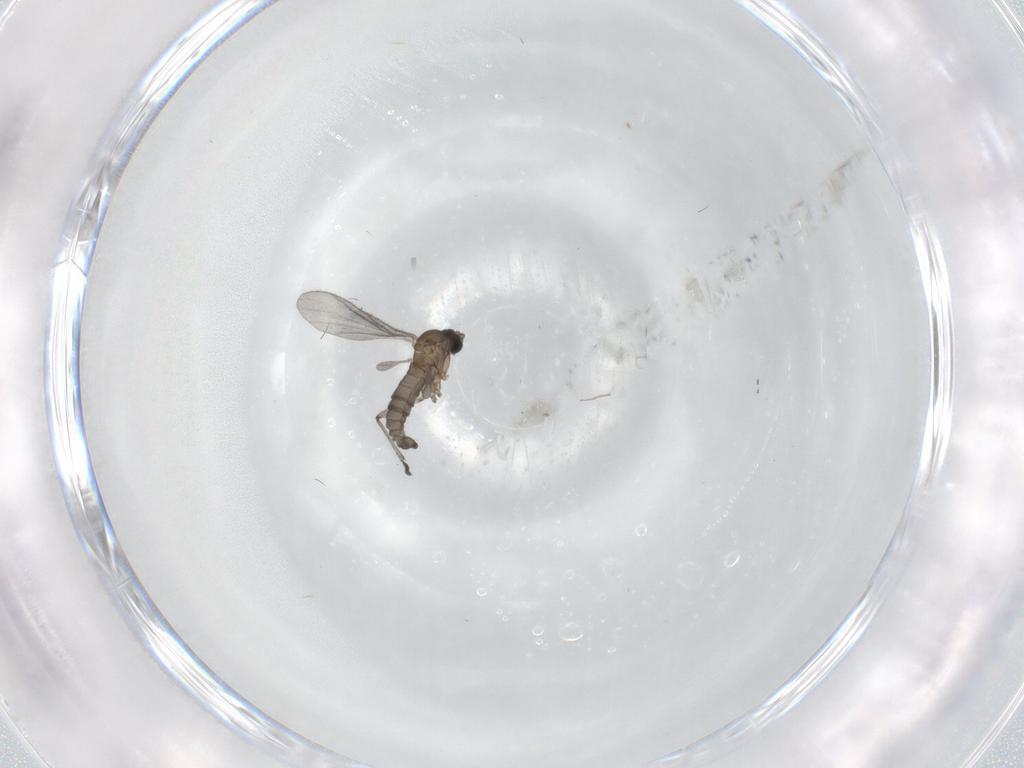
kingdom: Animalia
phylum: Arthropoda
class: Insecta
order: Diptera
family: Sciaridae
